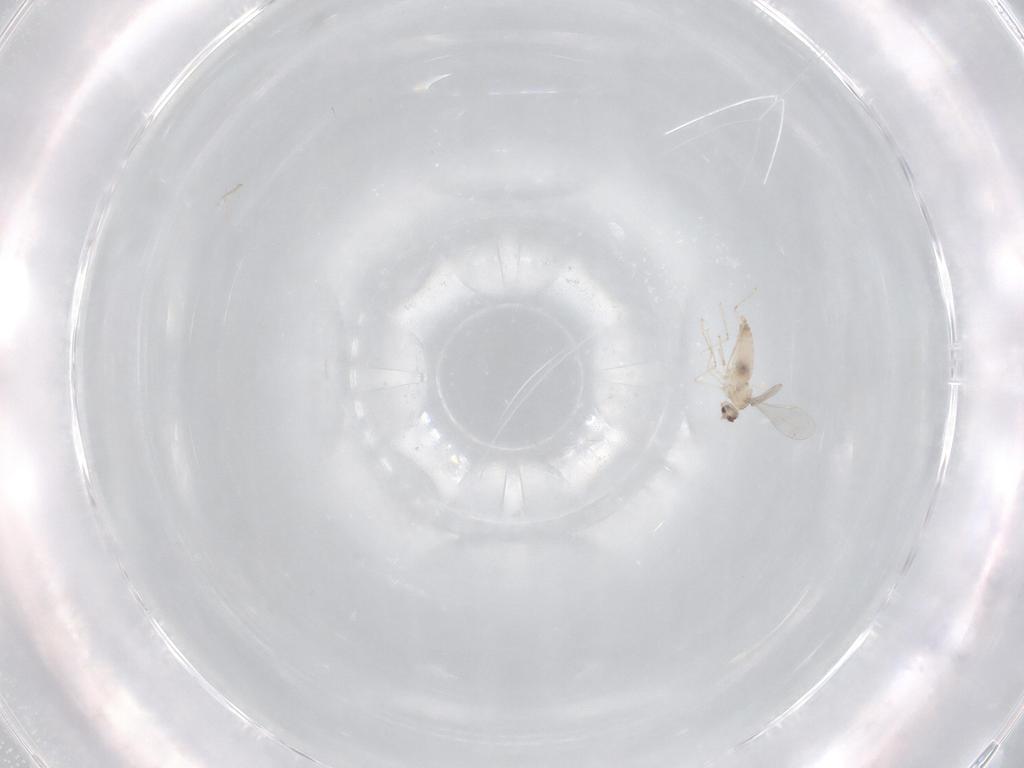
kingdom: Animalia
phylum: Arthropoda
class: Insecta
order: Diptera
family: Cecidomyiidae
